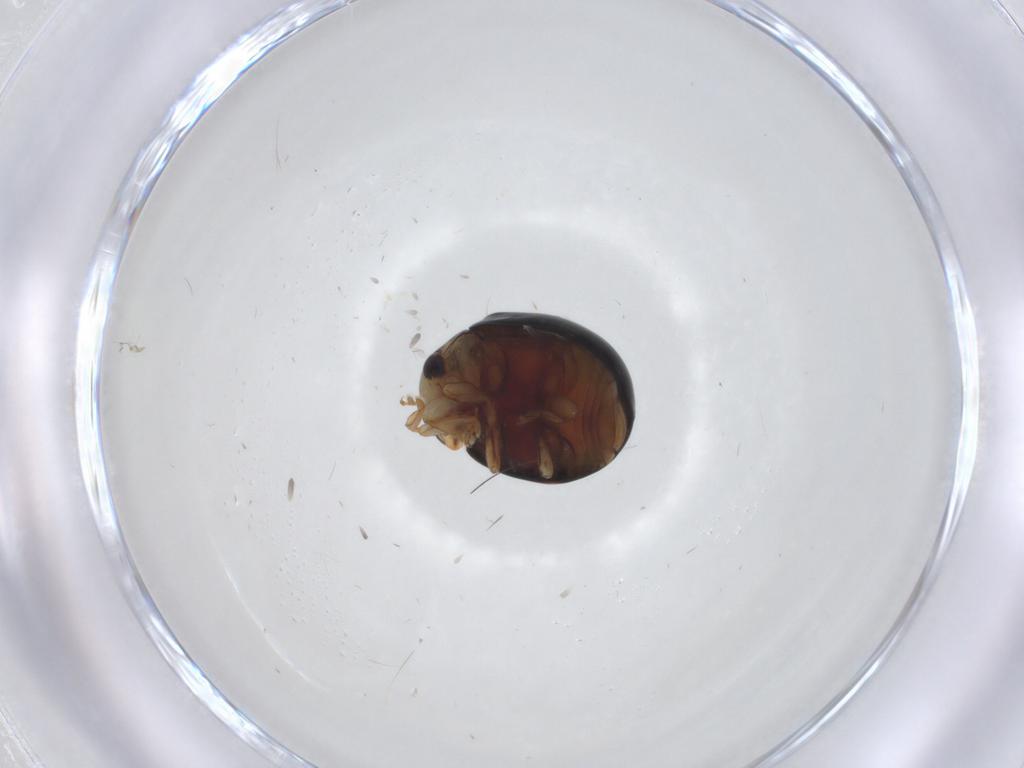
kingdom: Animalia
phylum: Arthropoda
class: Insecta
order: Coleoptera
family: Coccinellidae
